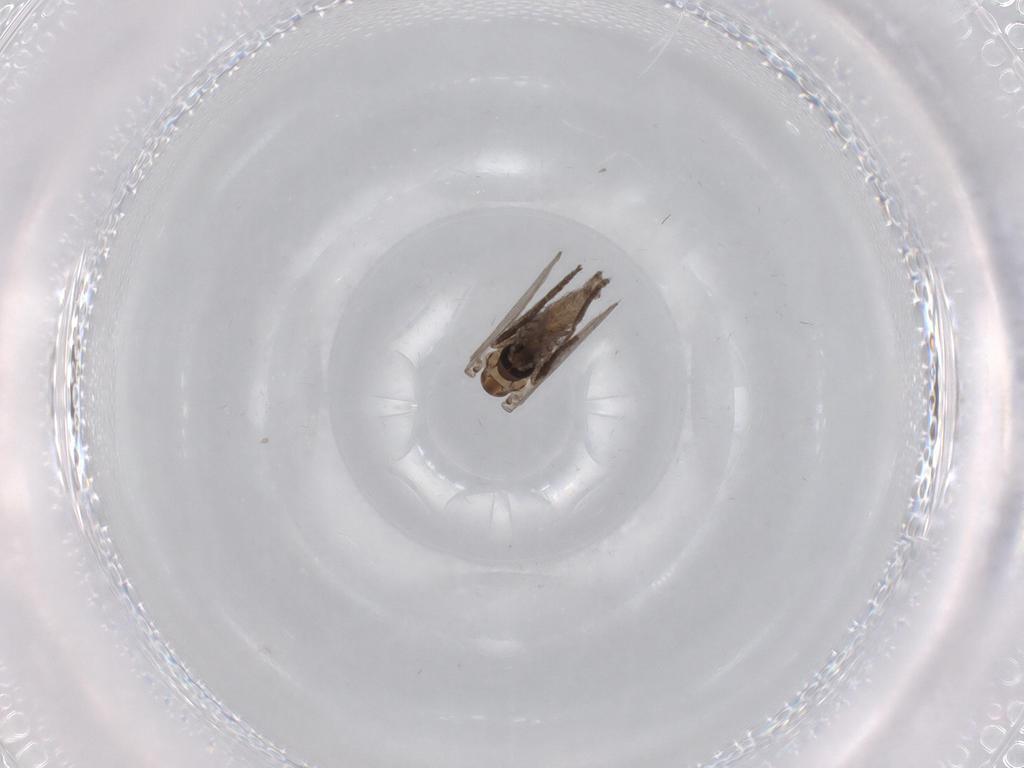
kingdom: Animalia
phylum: Arthropoda
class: Insecta
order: Diptera
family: Psychodidae
